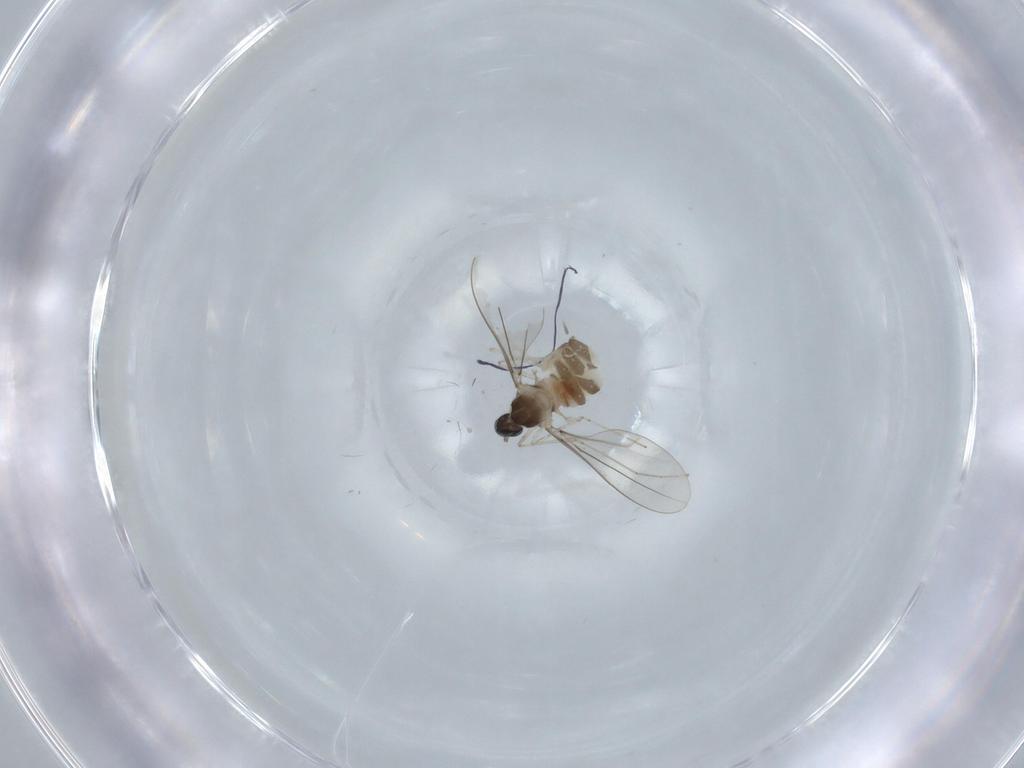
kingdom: Animalia
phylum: Arthropoda
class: Insecta
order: Diptera
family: Cecidomyiidae
